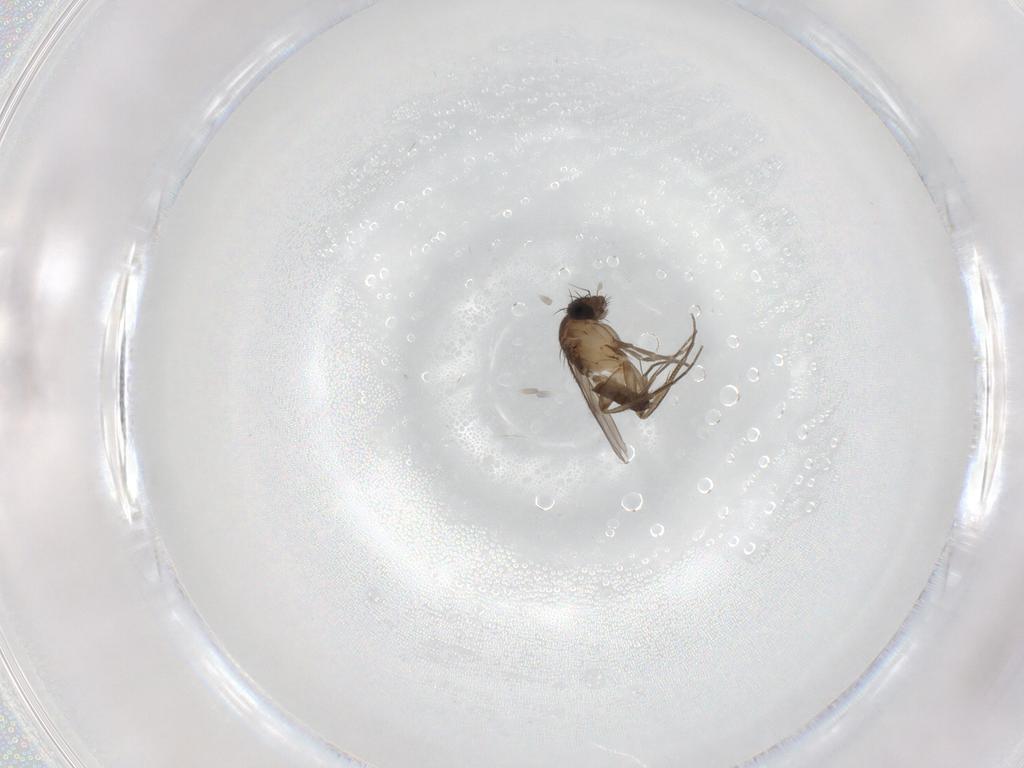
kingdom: Animalia
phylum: Arthropoda
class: Insecta
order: Diptera
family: Phoridae
